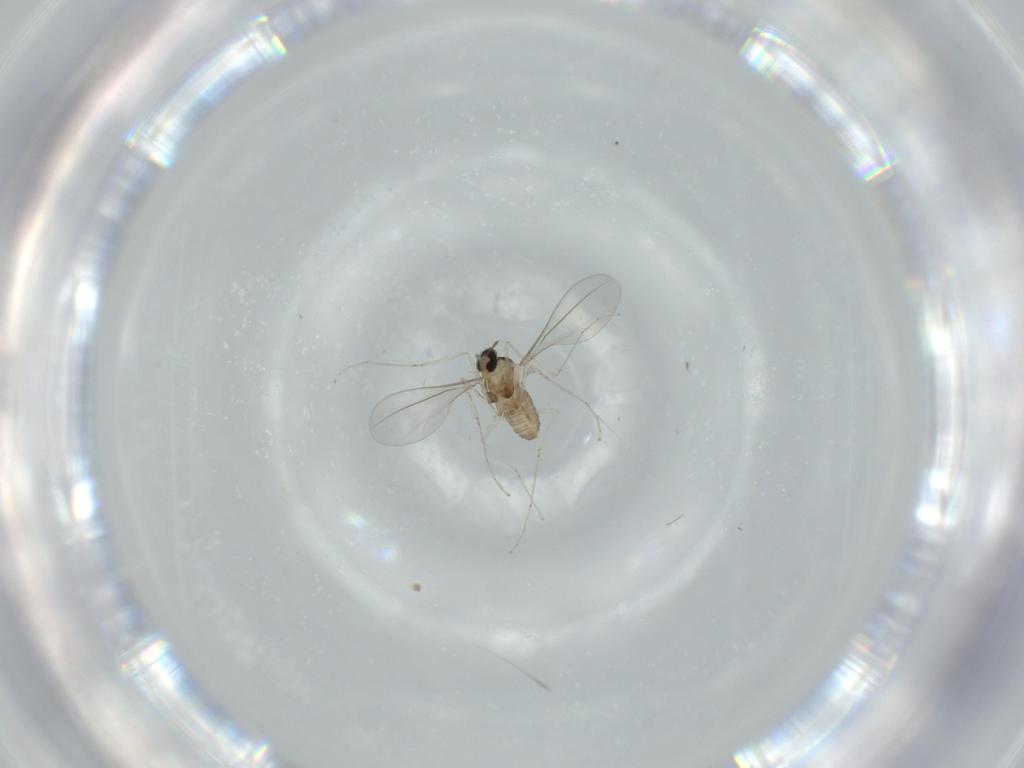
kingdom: Animalia
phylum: Arthropoda
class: Insecta
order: Diptera
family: Cecidomyiidae
